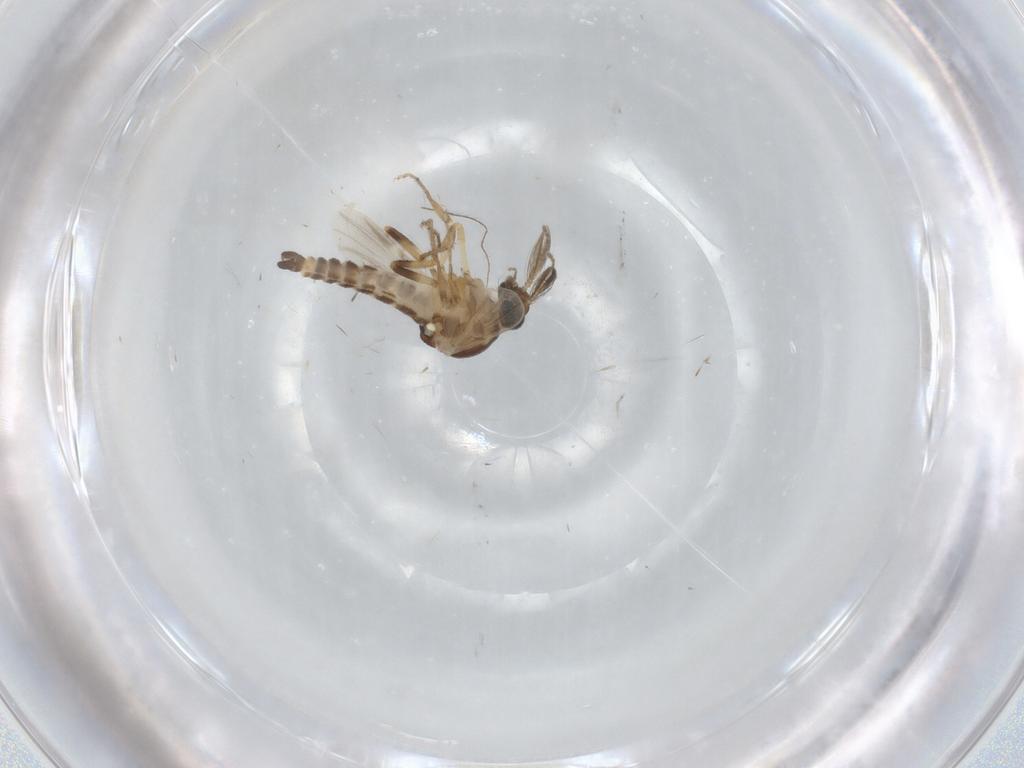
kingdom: Animalia
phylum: Arthropoda
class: Insecta
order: Diptera
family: Ceratopogonidae
